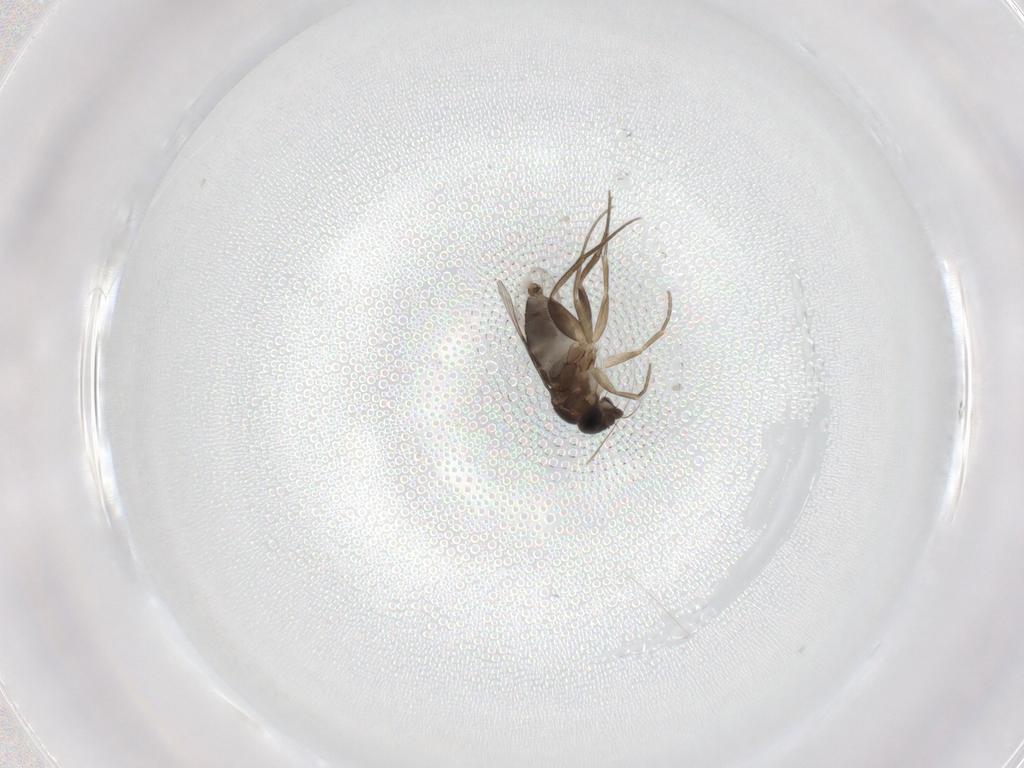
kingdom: Animalia
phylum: Arthropoda
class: Insecta
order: Diptera
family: Phoridae
